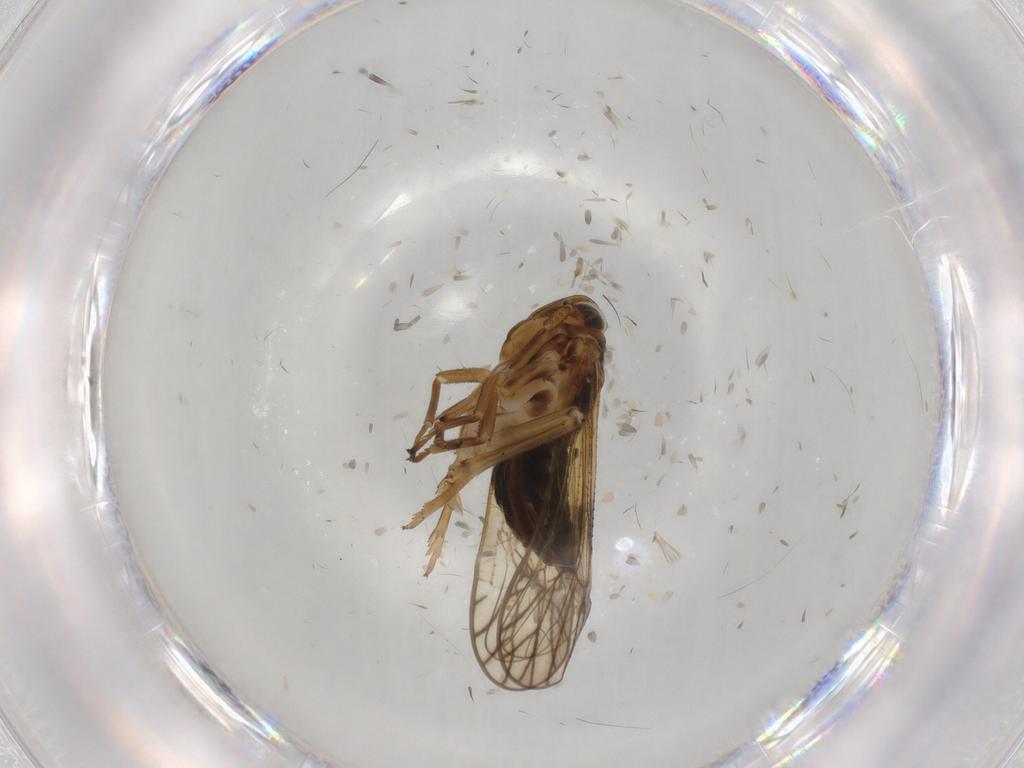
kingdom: Animalia
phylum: Arthropoda
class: Insecta
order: Hemiptera
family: Delphacidae
